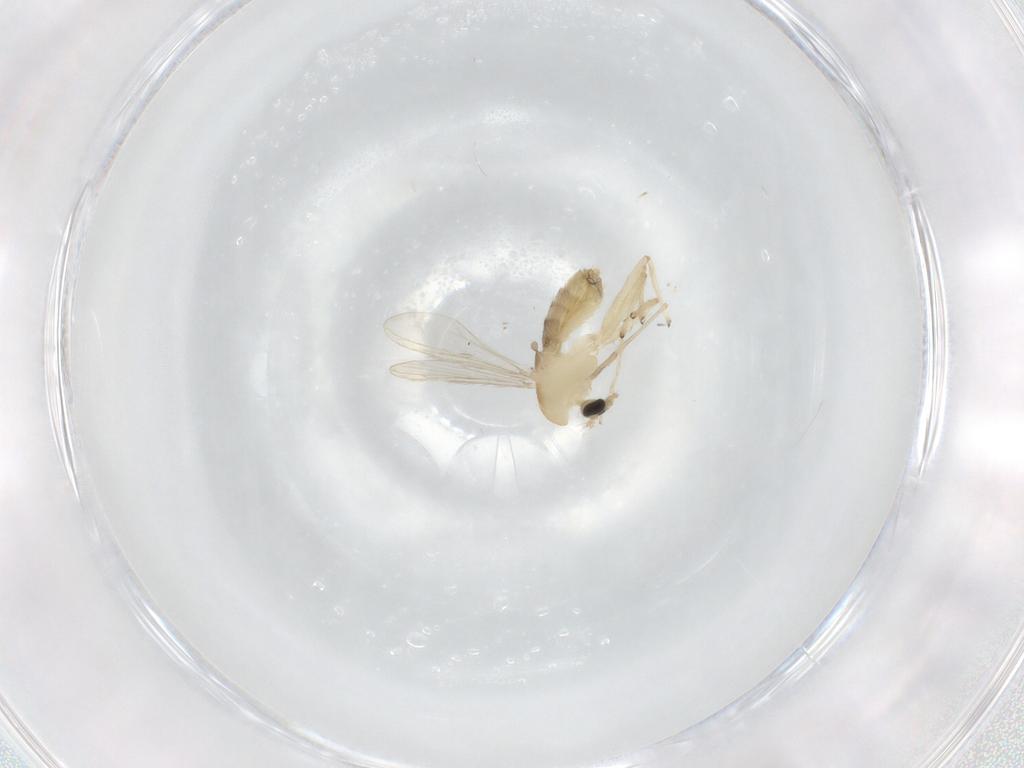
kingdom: Animalia
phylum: Arthropoda
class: Insecta
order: Diptera
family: Chironomidae
